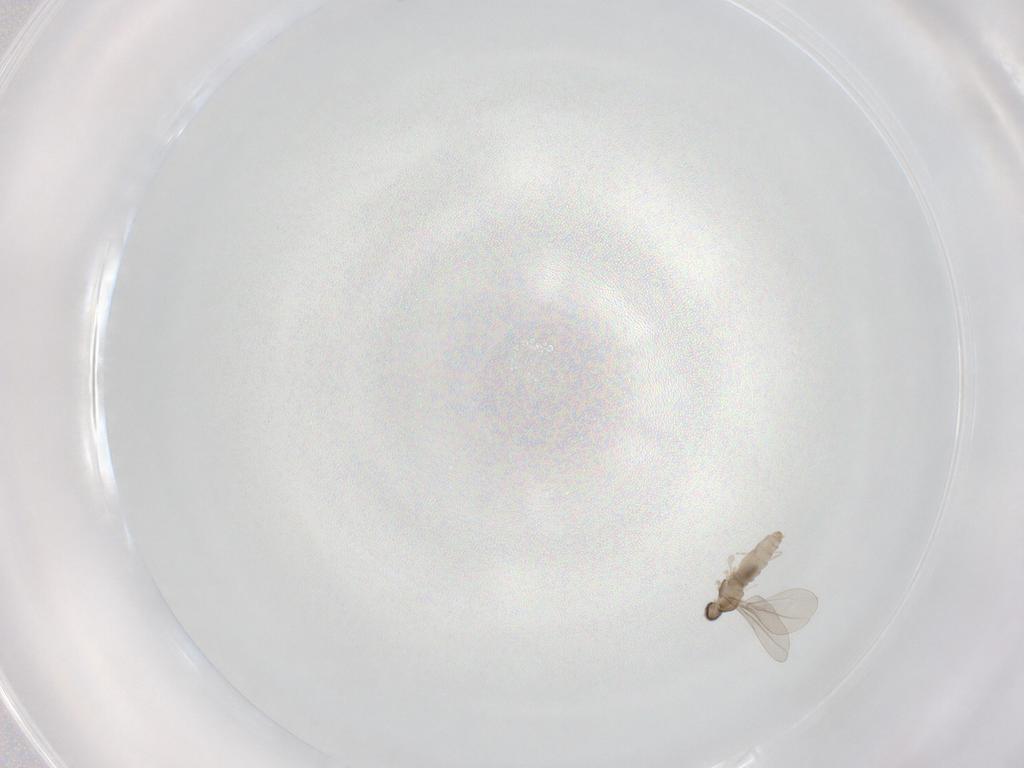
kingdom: Animalia
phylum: Arthropoda
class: Insecta
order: Diptera
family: Cecidomyiidae
